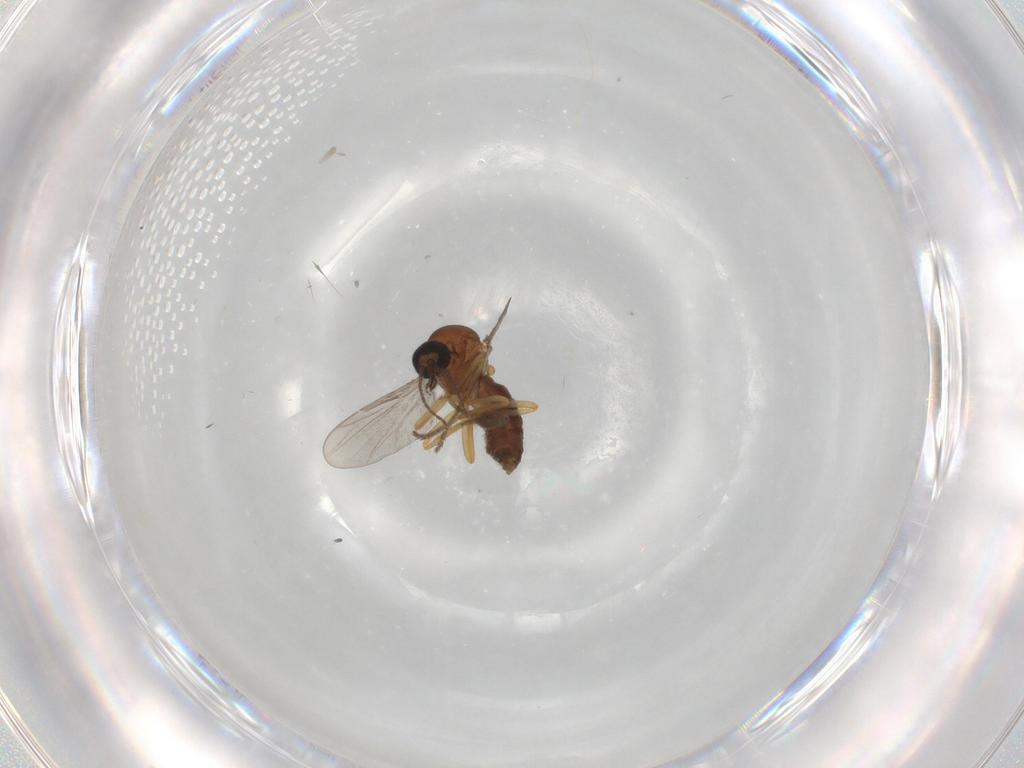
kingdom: Animalia
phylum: Arthropoda
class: Insecta
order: Diptera
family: Ceratopogonidae
